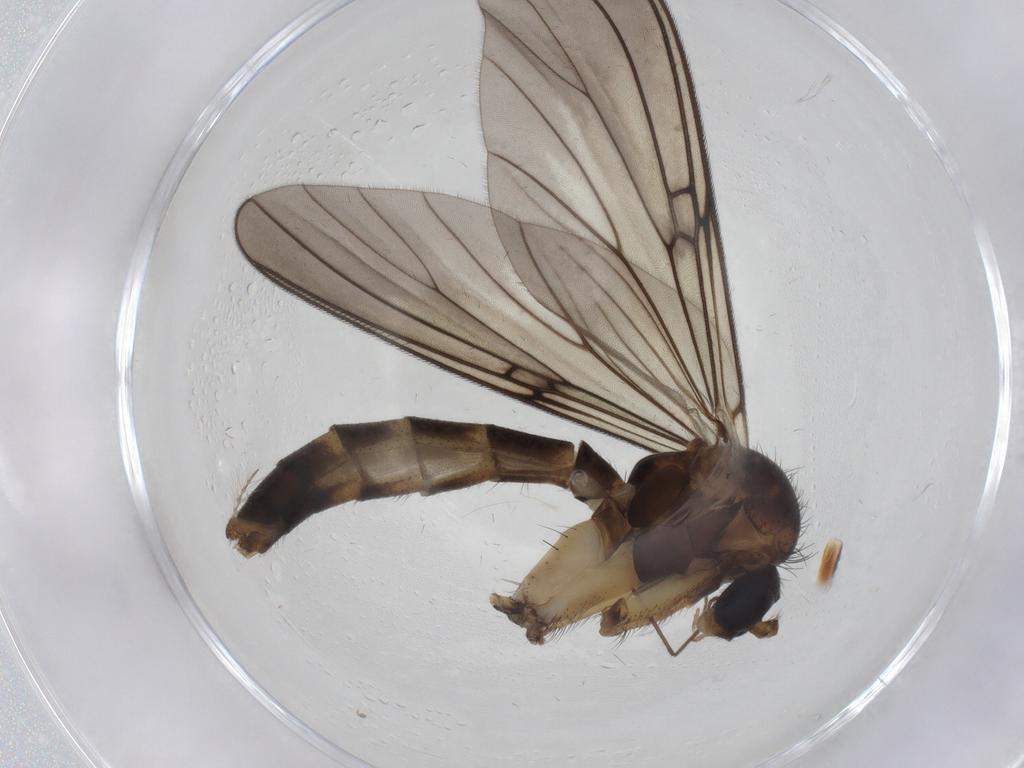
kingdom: Animalia
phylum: Arthropoda
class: Insecta
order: Diptera
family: Mycetophilidae
